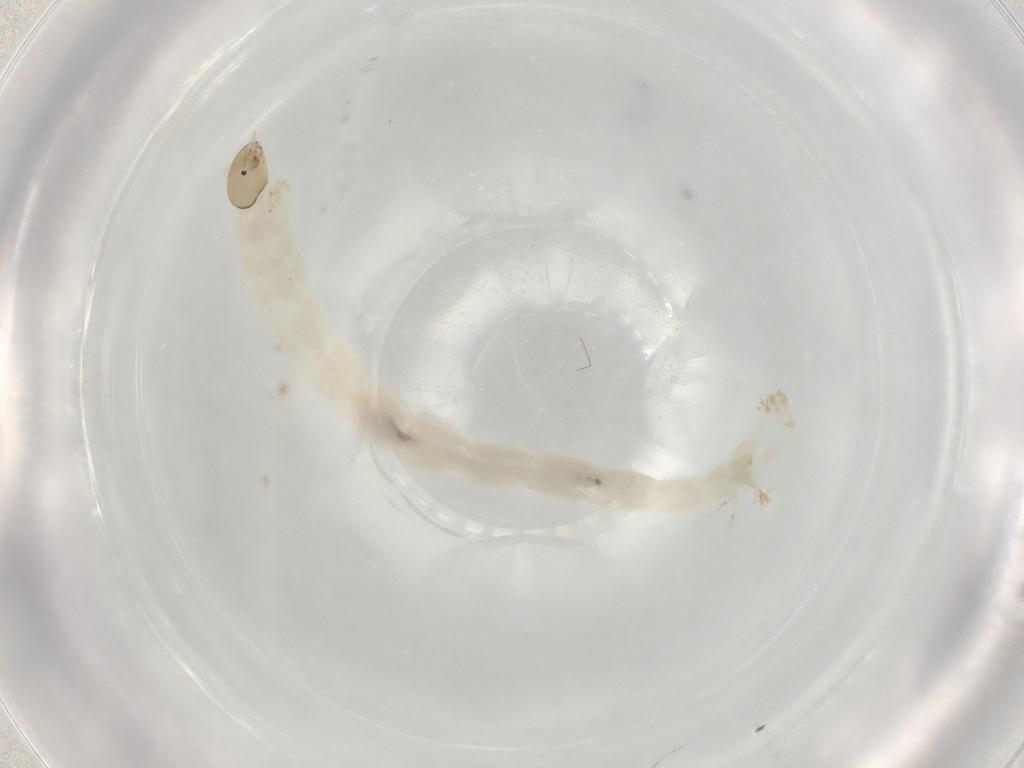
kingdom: Animalia
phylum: Arthropoda
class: Insecta
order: Diptera
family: Chironomidae
